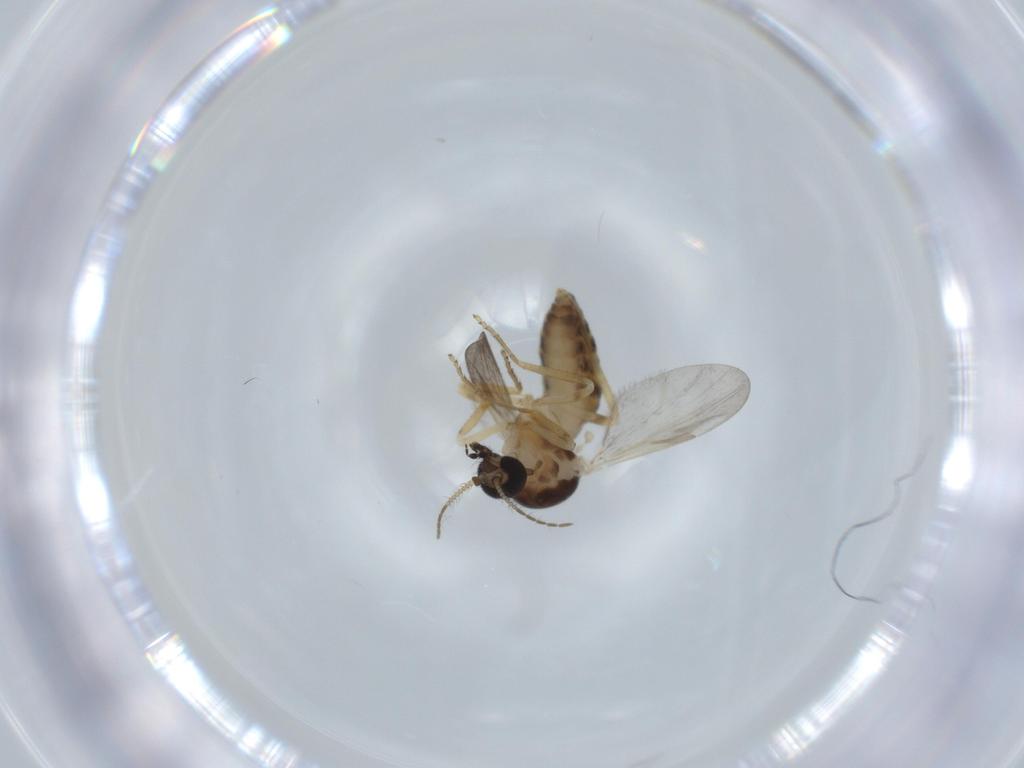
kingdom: Animalia
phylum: Arthropoda
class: Insecta
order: Diptera
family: Ceratopogonidae
